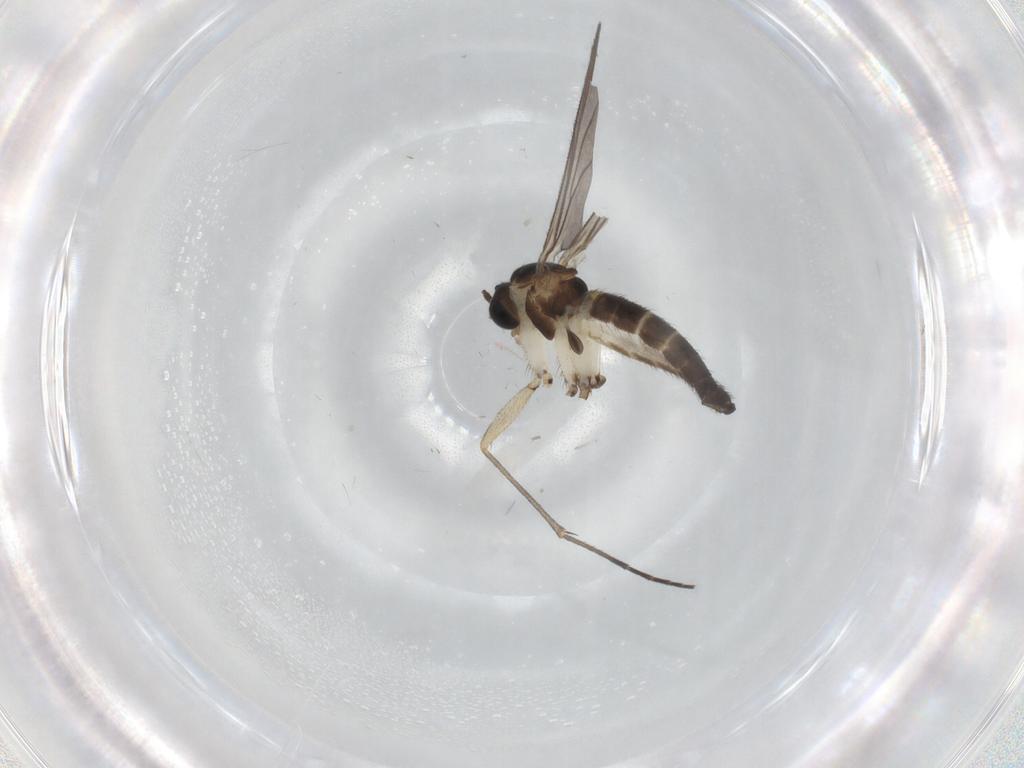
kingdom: Animalia
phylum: Arthropoda
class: Insecta
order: Diptera
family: Sciaridae
